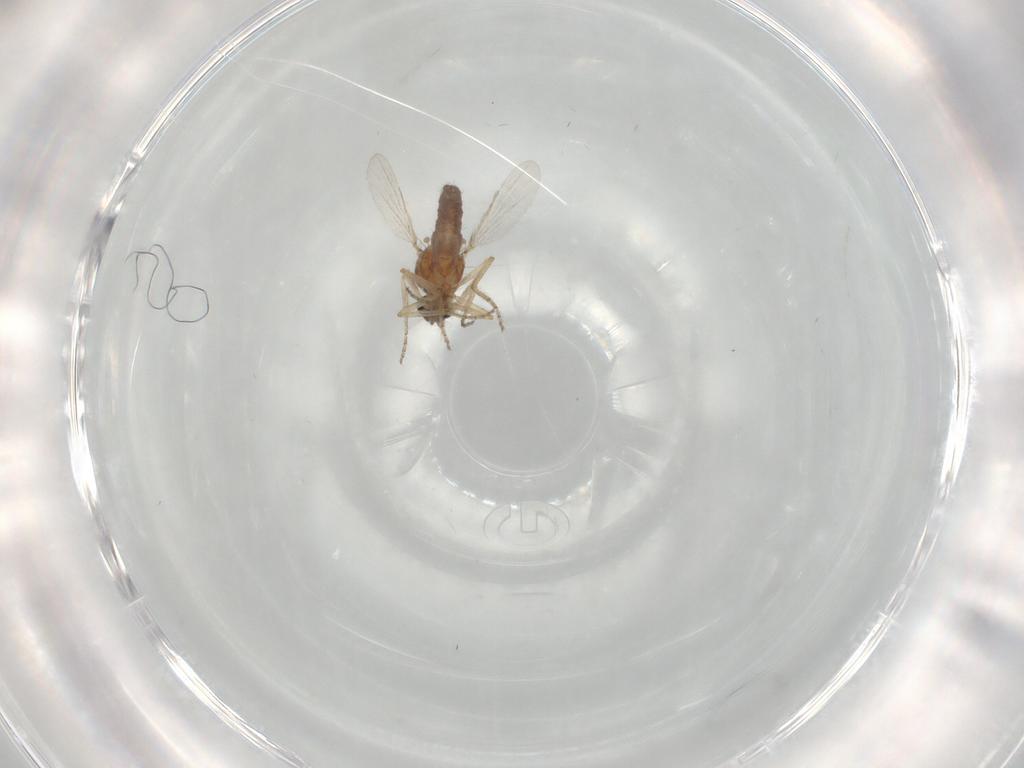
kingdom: Animalia
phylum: Arthropoda
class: Insecta
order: Diptera
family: Ceratopogonidae
